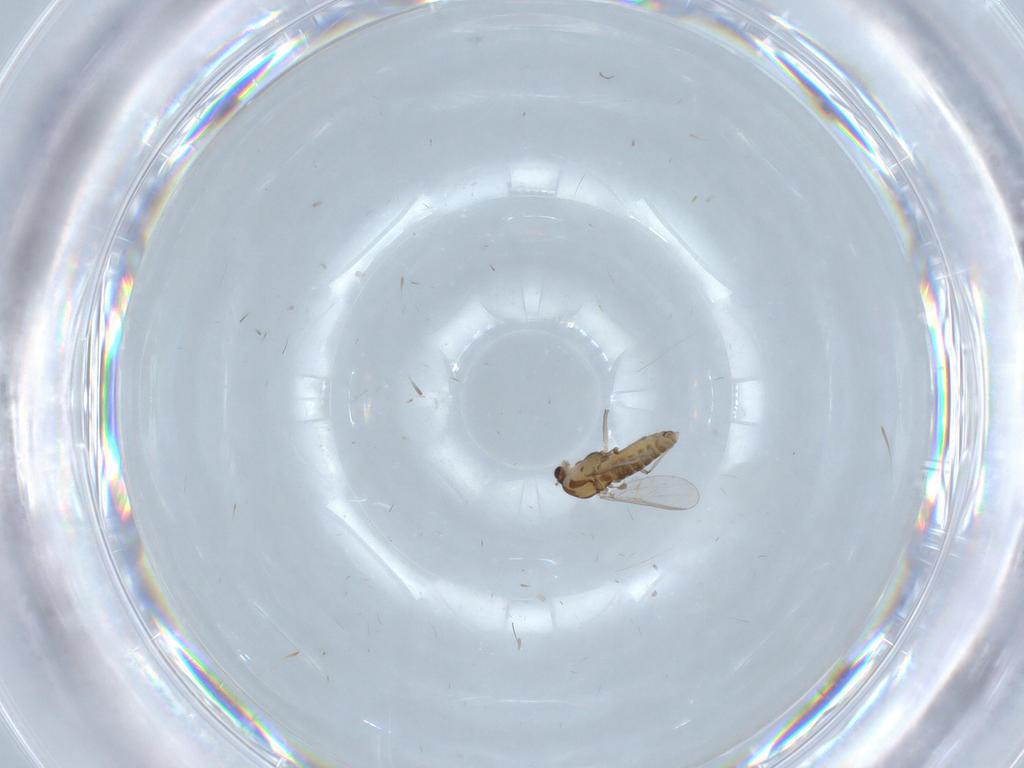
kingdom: Animalia
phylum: Arthropoda
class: Insecta
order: Diptera
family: Chironomidae
